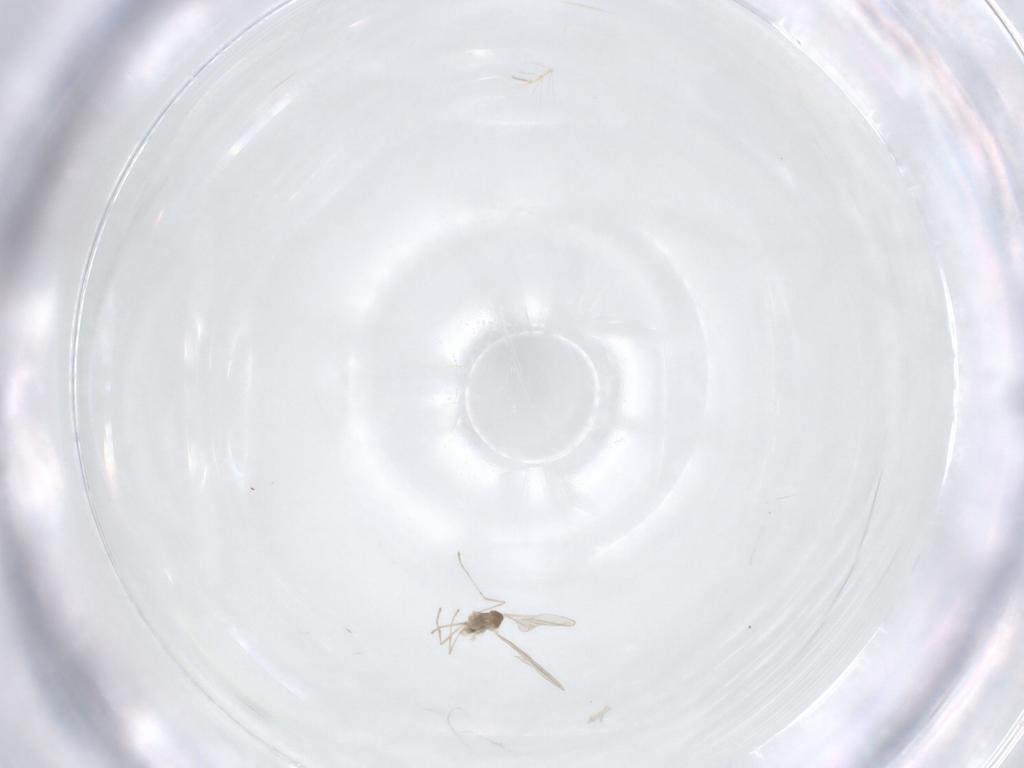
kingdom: Animalia
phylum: Arthropoda
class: Insecta
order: Diptera
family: Cecidomyiidae
